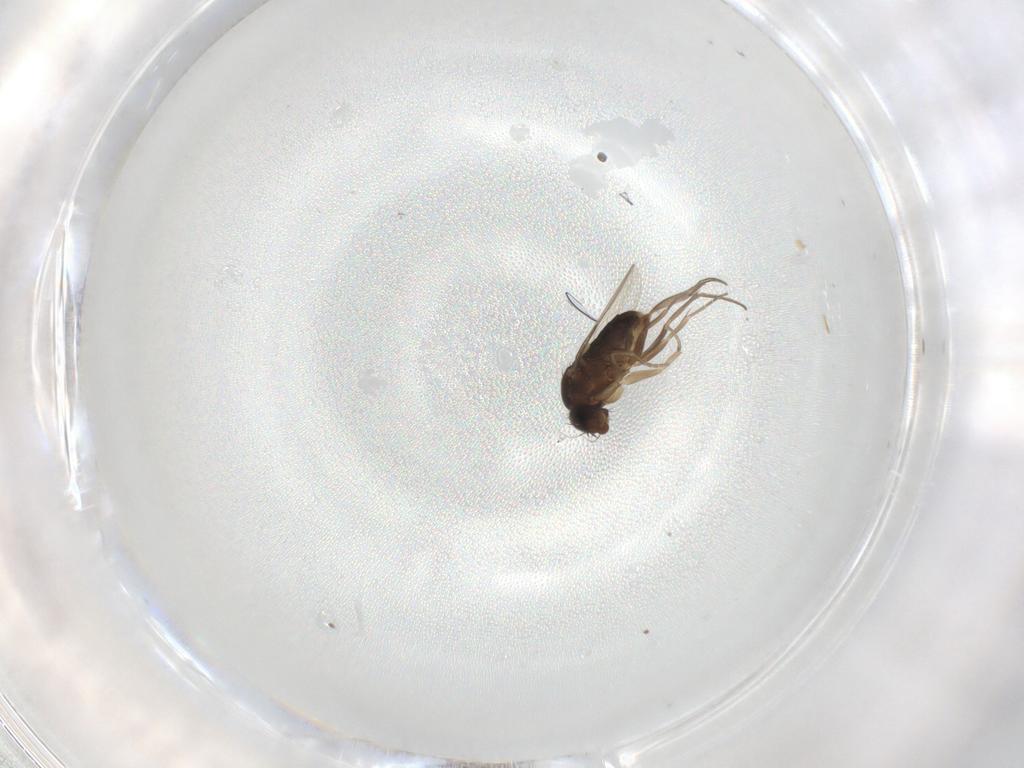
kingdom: Animalia
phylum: Arthropoda
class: Insecta
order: Diptera
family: Phoridae
